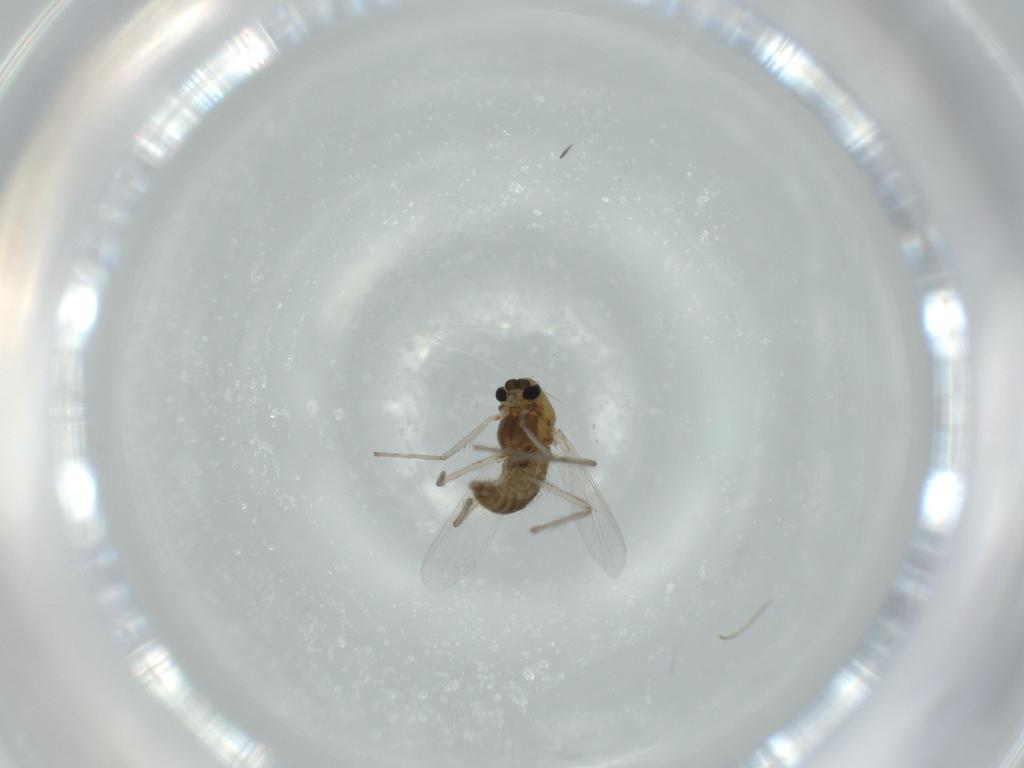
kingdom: Animalia
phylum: Arthropoda
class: Insecta
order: Diptera
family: Chironomidae
